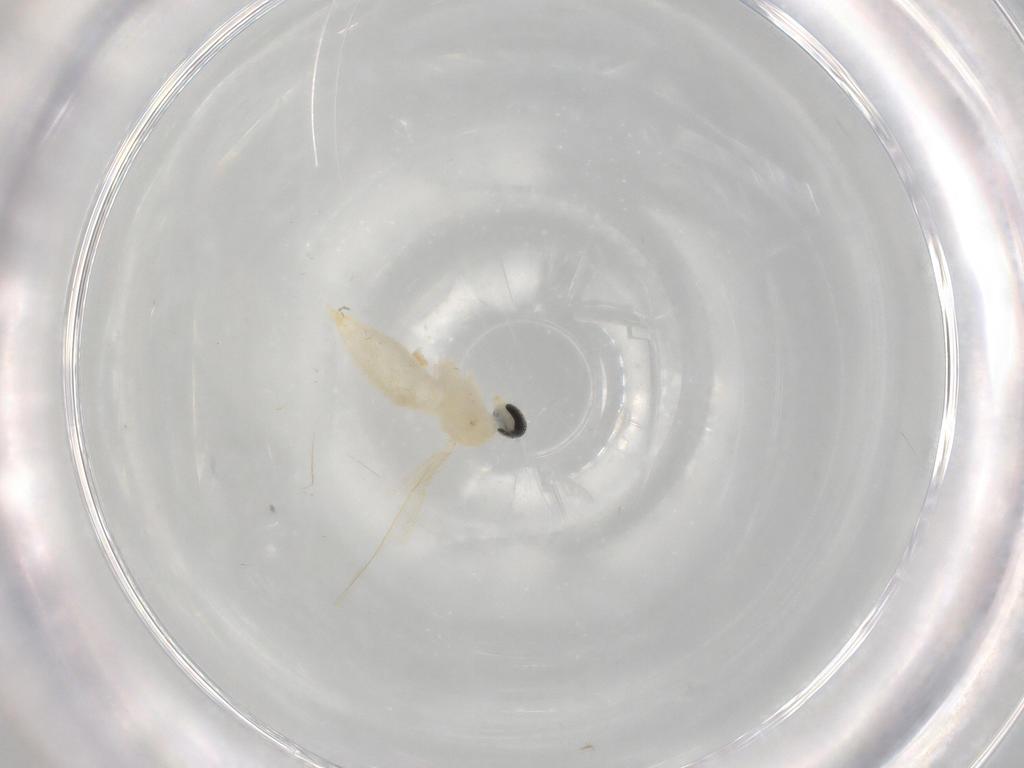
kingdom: Animalia
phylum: Arthropoda
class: Insecta
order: Diptera
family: Cecidomyiidae
